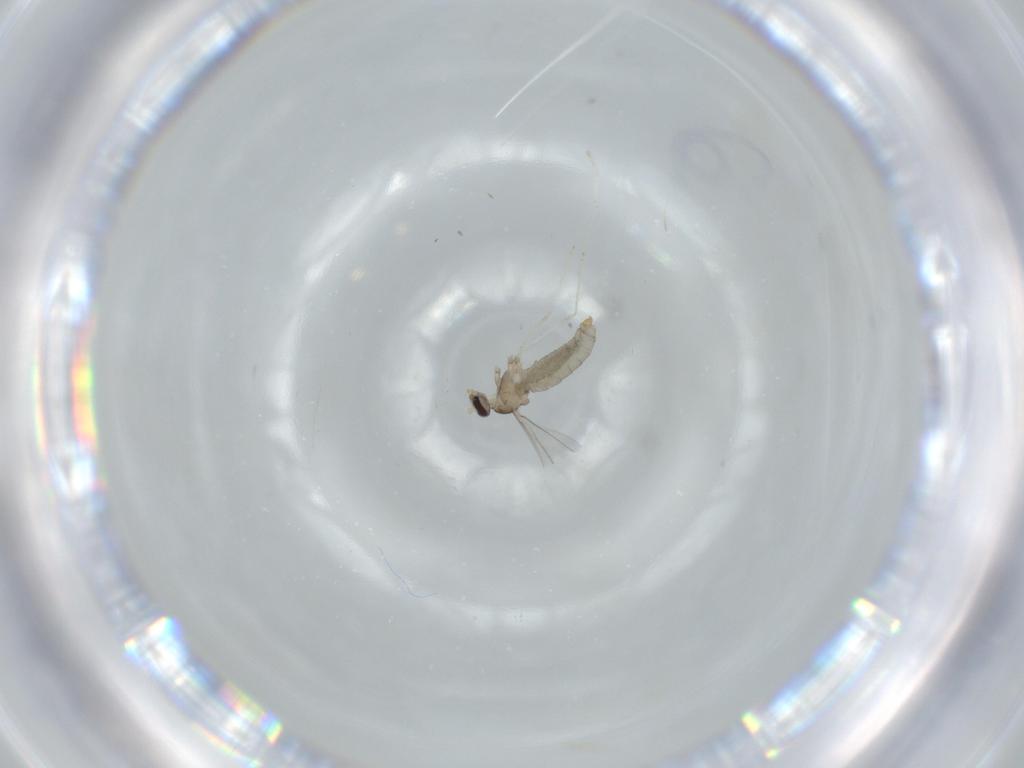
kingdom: Animalia
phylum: Arthropoda
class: Insecta
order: Diptera
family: Cecidomyiidae
